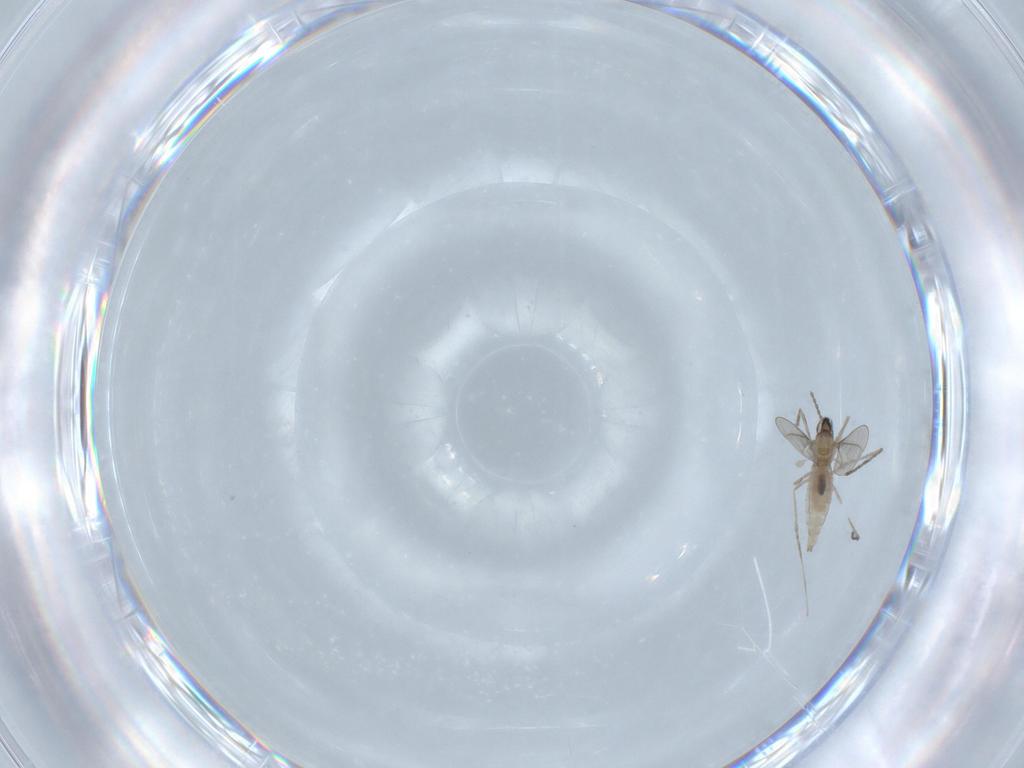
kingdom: Animalia
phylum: Arthropoda
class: Insecta
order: Diptera
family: Cecidomyiidae
